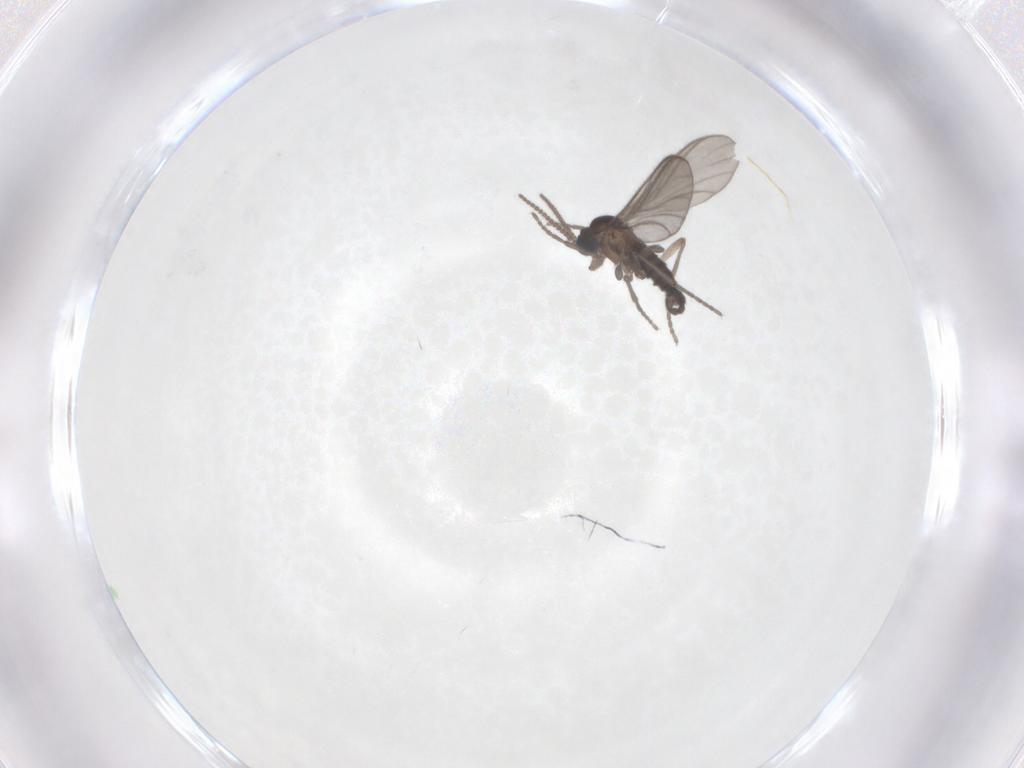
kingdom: Animalia
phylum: Arthropoda
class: Insecta
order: Diptera
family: Sciaridae
